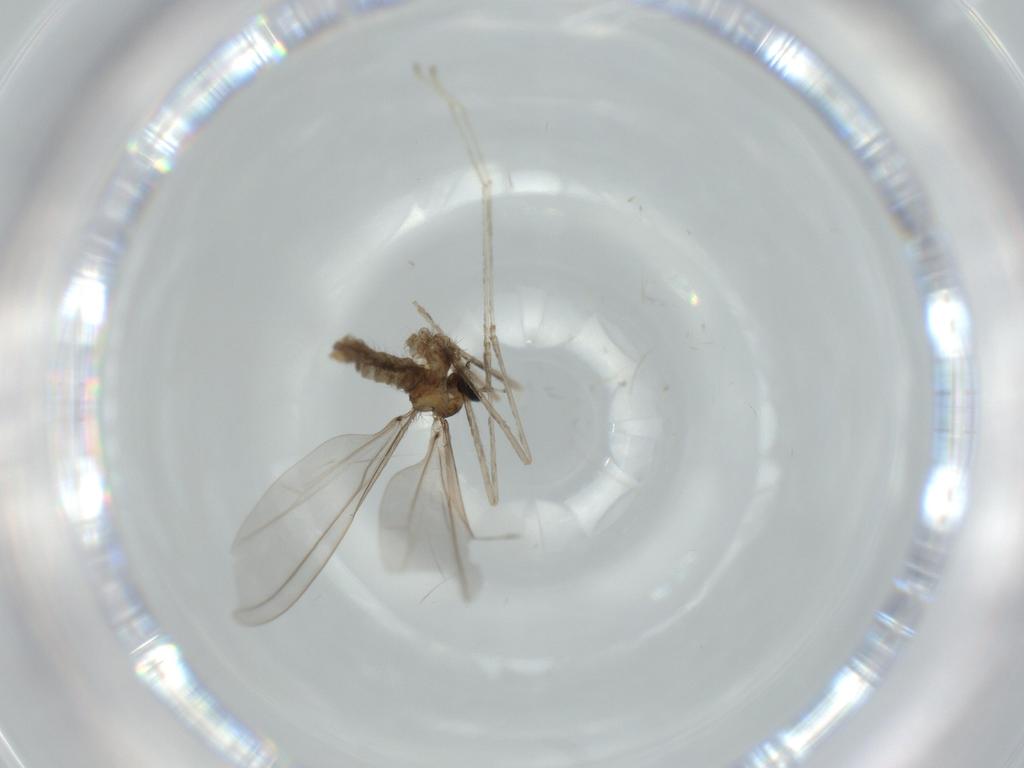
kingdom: Animalia
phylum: Arthropoda
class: Insecta
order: Diptera
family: Cecidomyiidae
